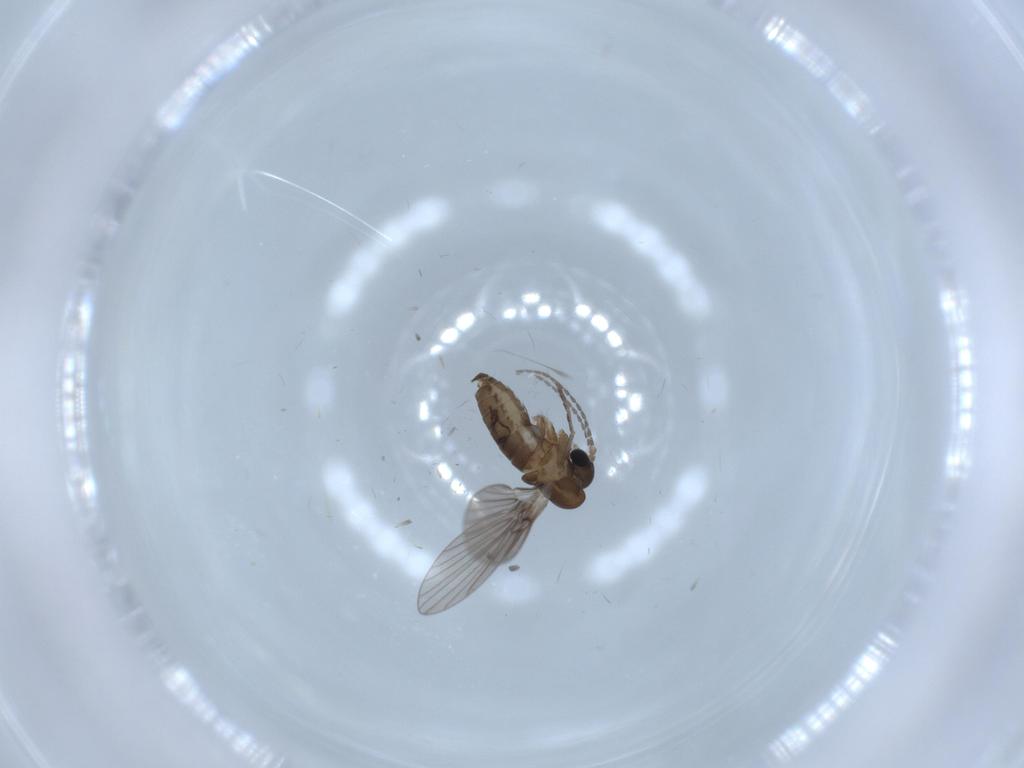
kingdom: Animalia
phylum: Arthropoda
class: Insecta
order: Diptera
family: Psychodidae
